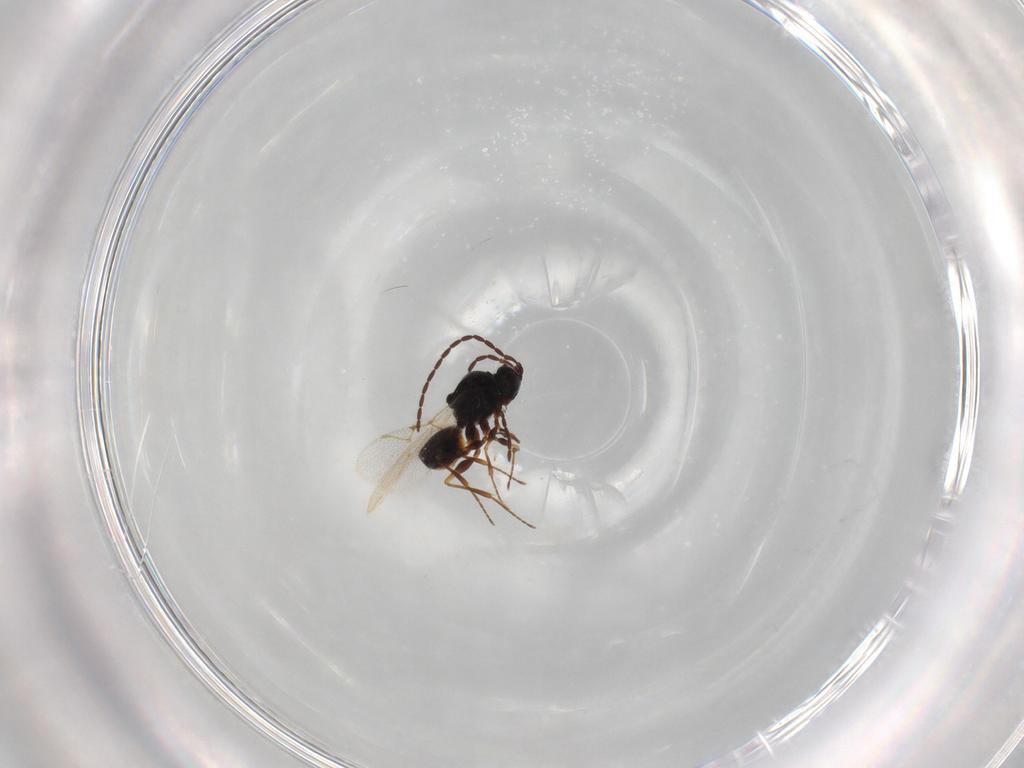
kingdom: Animalia
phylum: Arthropoda
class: Insecta
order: Hymenoptera
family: Figitidae
